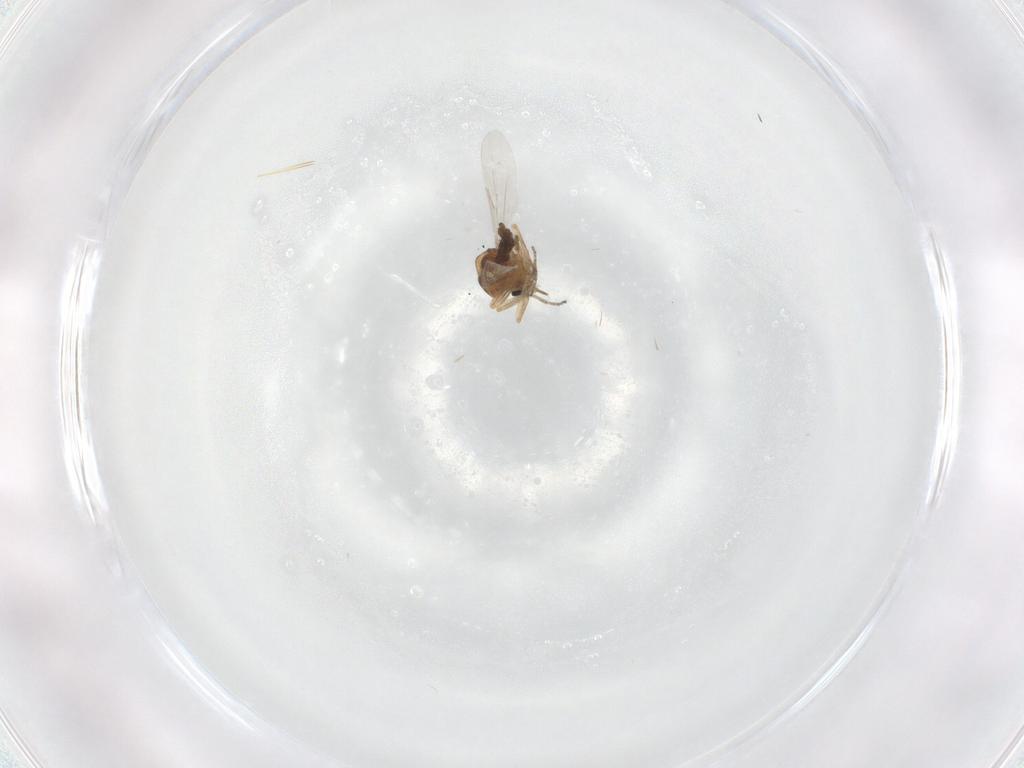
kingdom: Animalia
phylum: Arthropoda
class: Insecta
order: Diptera
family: Ceratopogonidae
